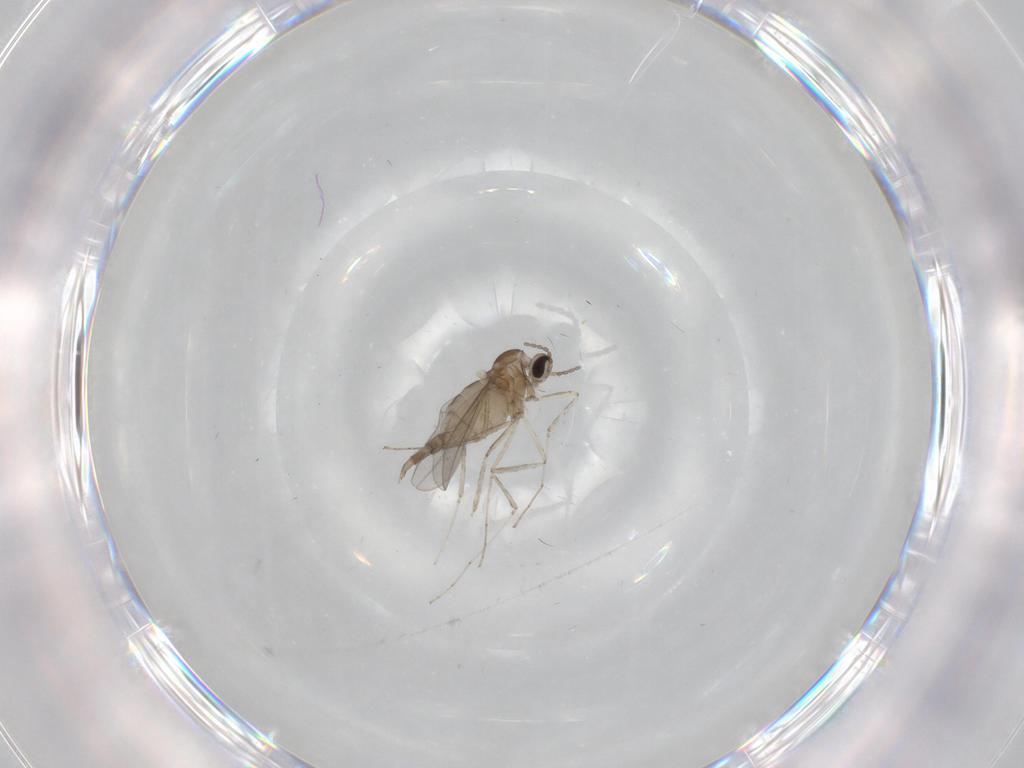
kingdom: Animalia
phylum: Arthropoda
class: Insecta
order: Diptera
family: Cecidomyiidae
